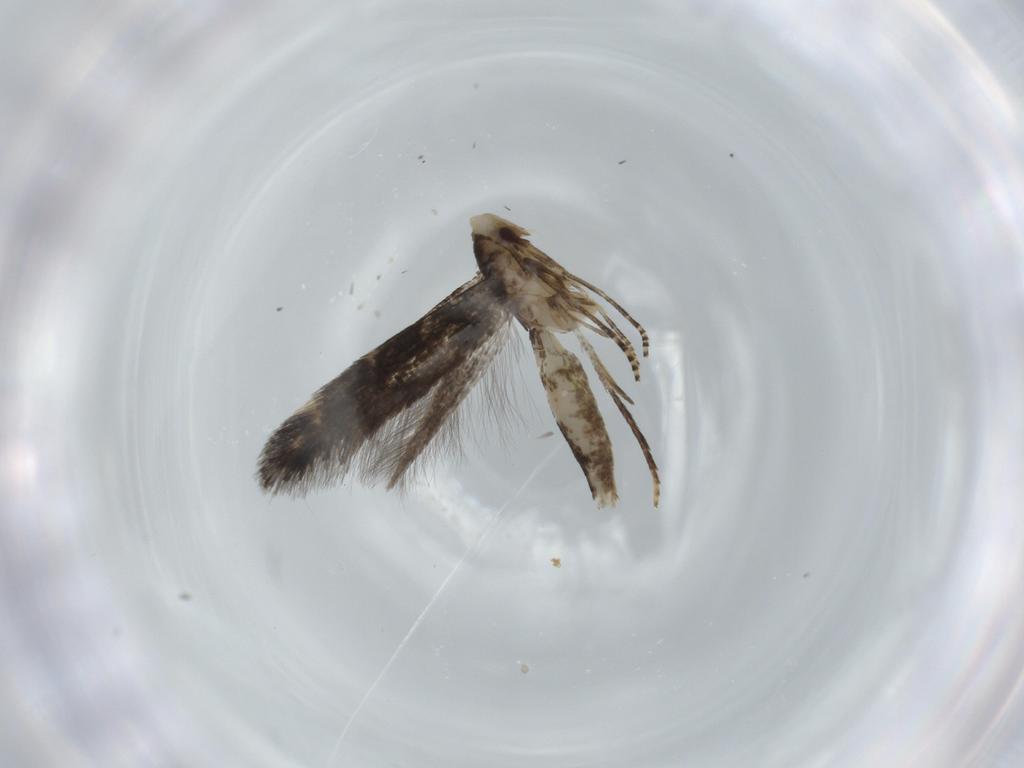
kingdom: Animalia
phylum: Arthropoda
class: Insecta
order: Lepidoptera
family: Ypsolophidae
